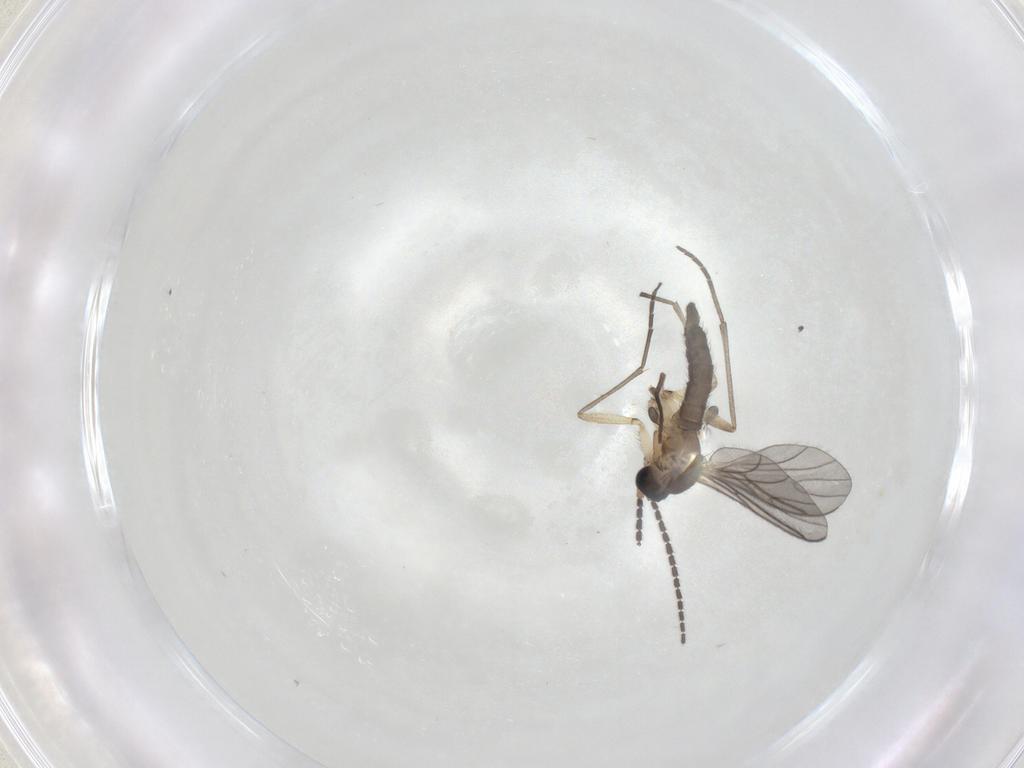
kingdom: Animalia
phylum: Arthropoda
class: Insecta
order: Diptera
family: Sciaridae
